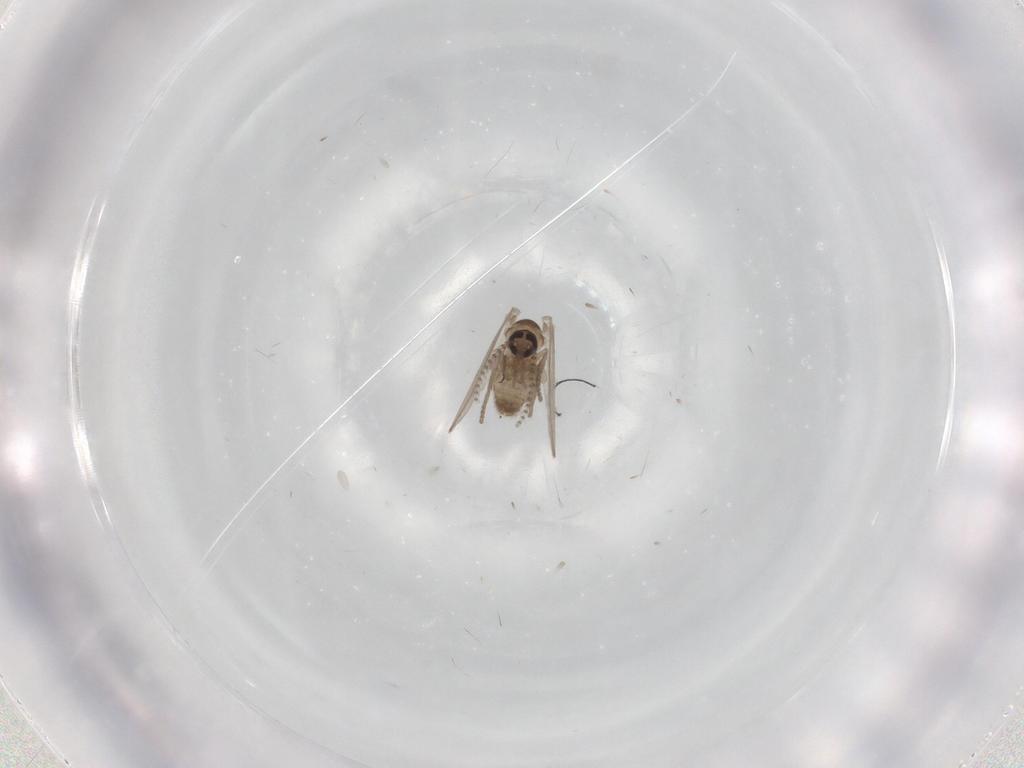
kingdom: Animalia
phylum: Arthropoda
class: Insecta
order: Diptera
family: Psychodidae
